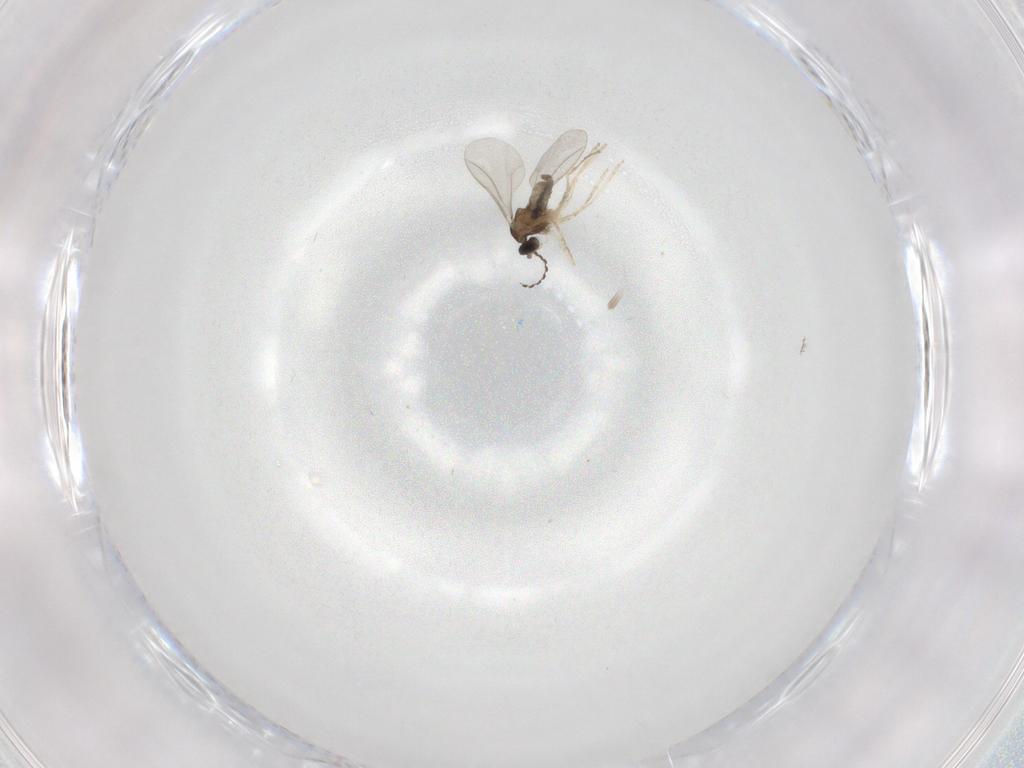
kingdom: Animalia
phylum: Arthropoda
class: Insecta
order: Diptera
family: Cecidomyiidae
